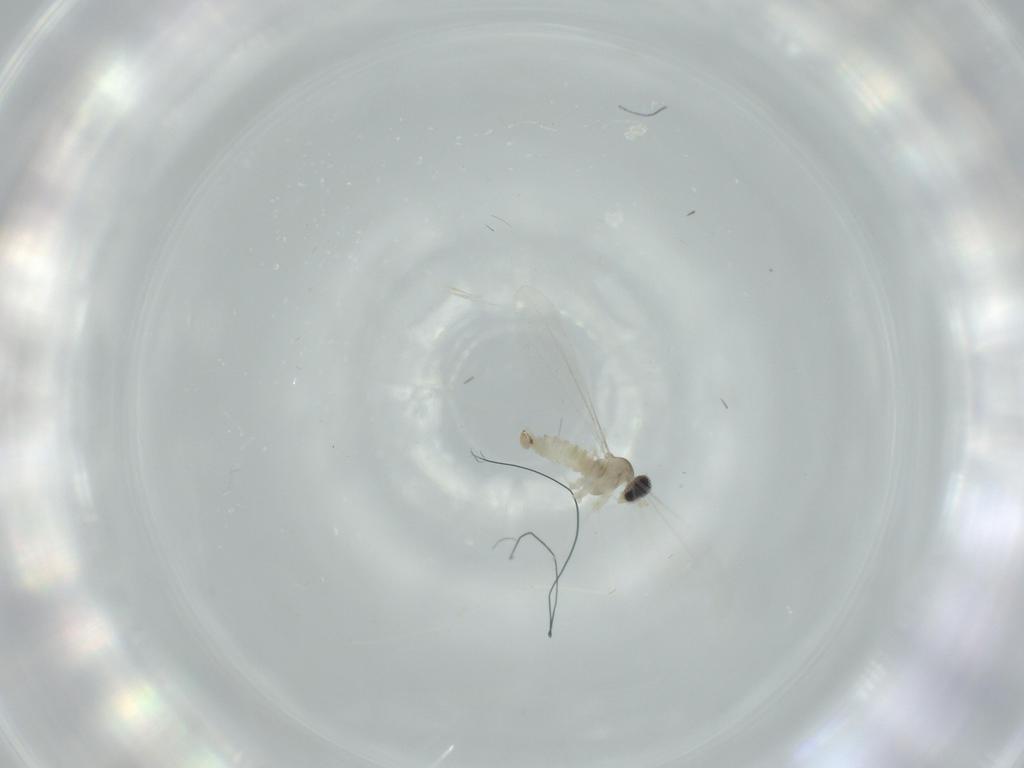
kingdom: Animalia
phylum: Arthropoda
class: Insecta
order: Diptera
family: Cecidomyiidae
